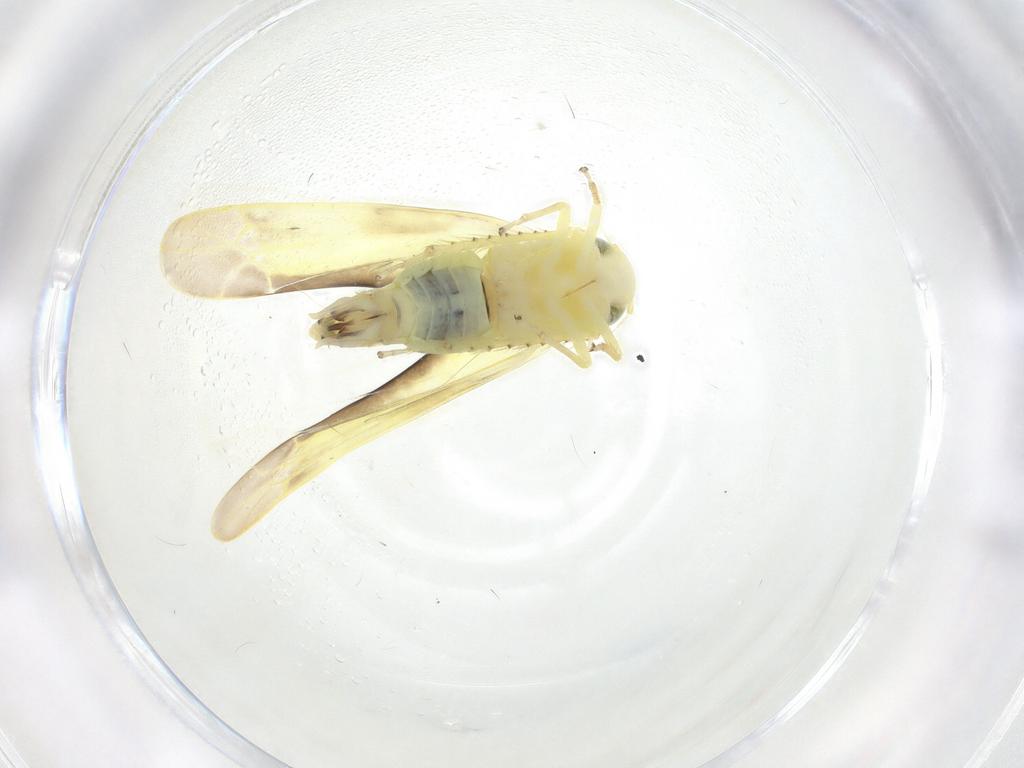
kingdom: Animalia
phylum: Arthropoda
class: Insecta
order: Hemiptera
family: Cicadellidae
